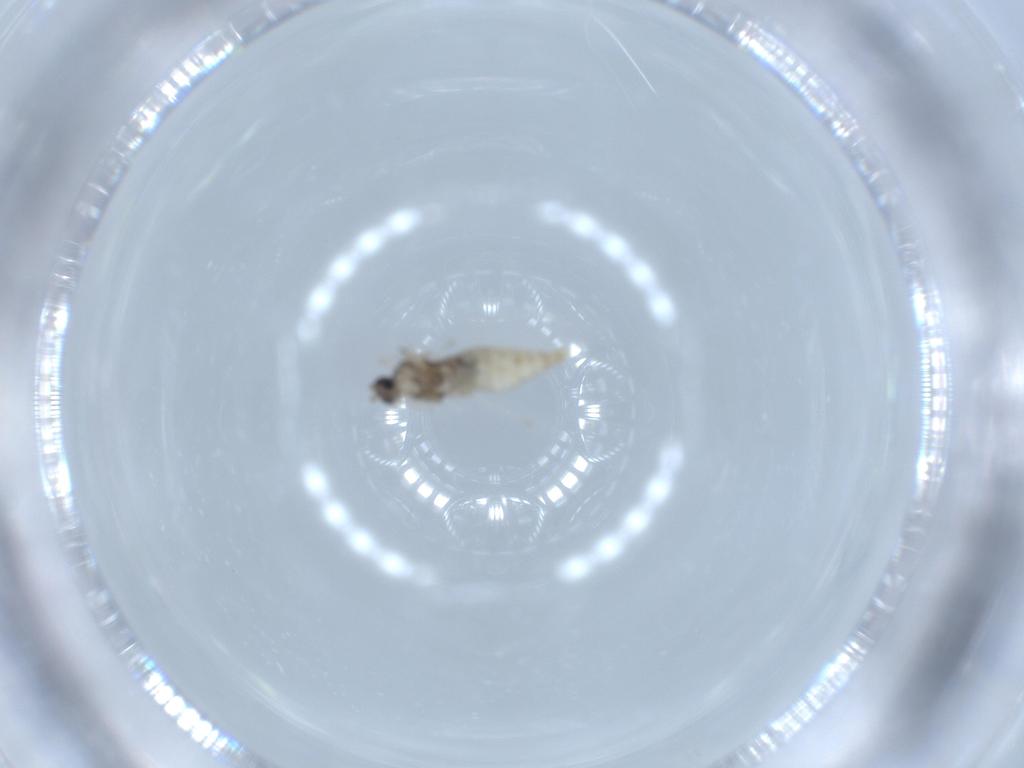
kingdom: Animalia
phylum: Arthropoda
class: Insecta
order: Diptera
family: Cecidomyiidae
